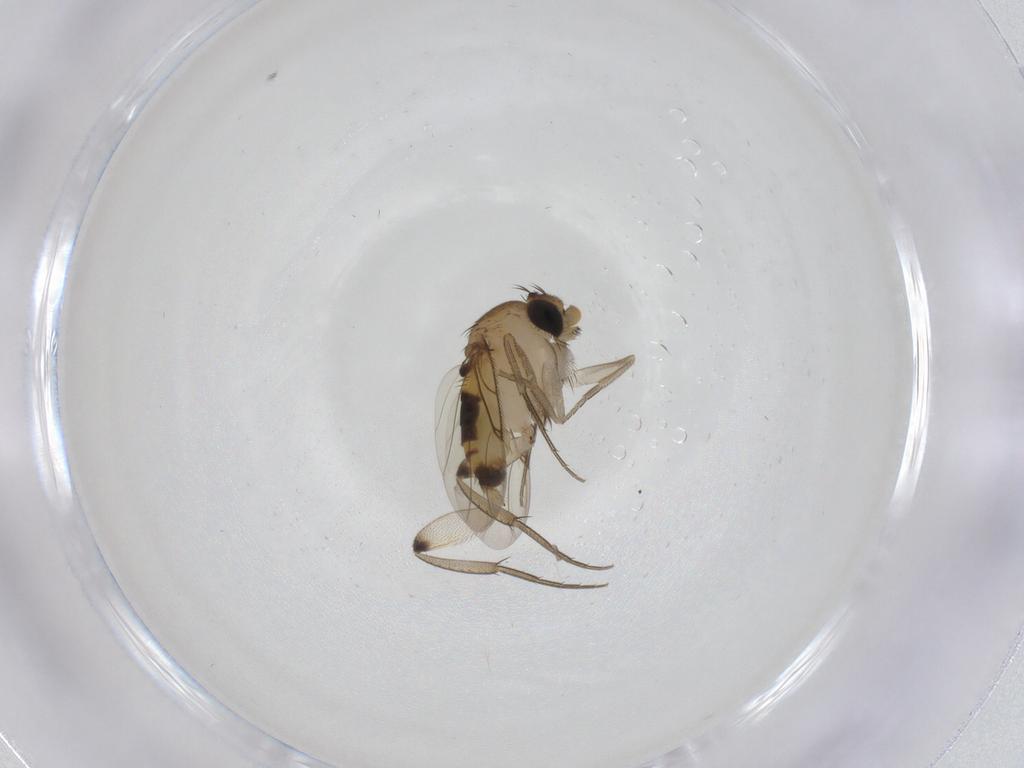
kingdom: Animalia
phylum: Arthropoda
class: Insecta
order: Diptera
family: Phoridae
